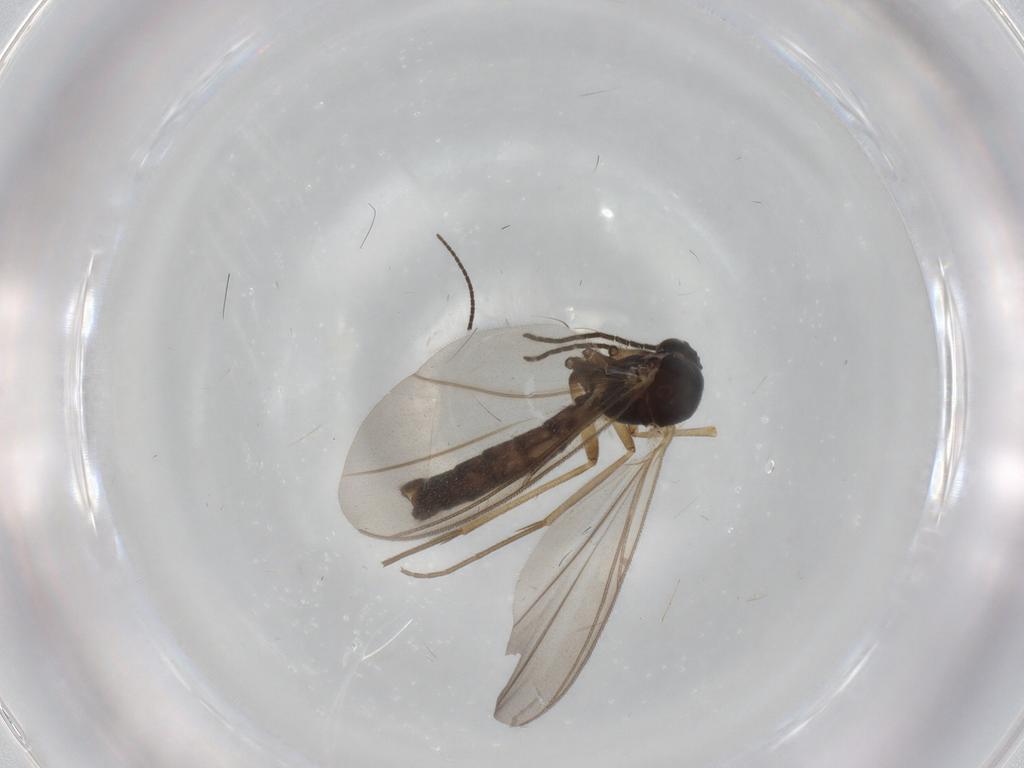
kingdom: Animalia
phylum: Arthropoda
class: Insecta
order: Diptera
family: Mycetophilidae
